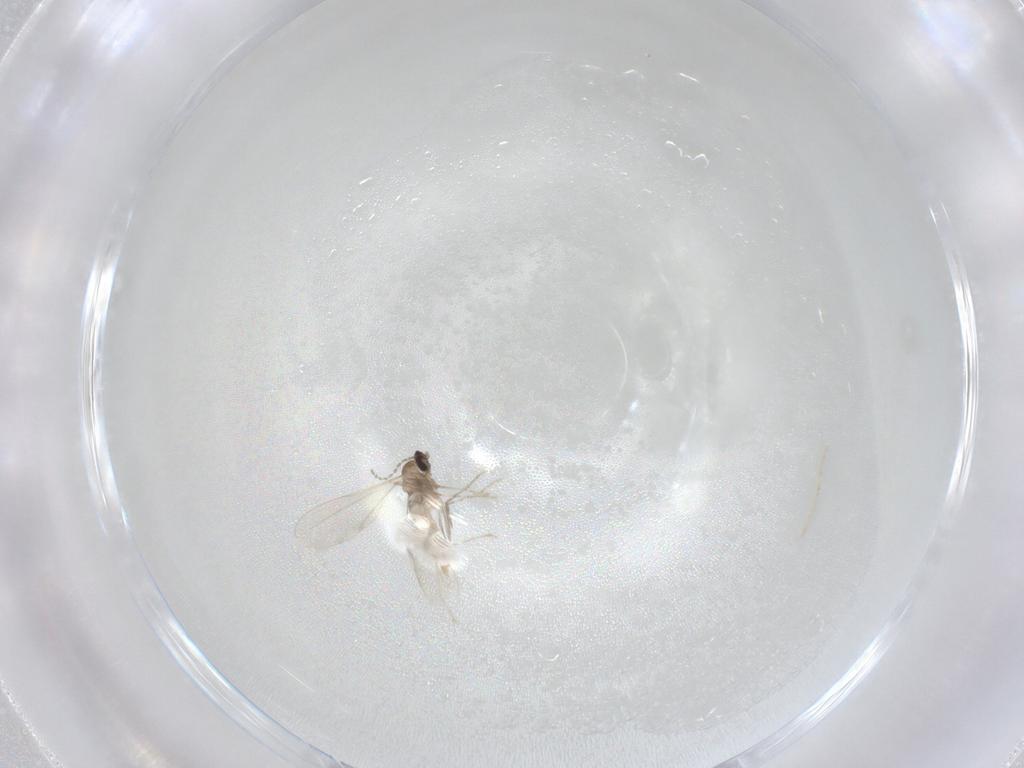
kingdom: Animalia
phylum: Arthropoda
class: Insecta
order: Diptera
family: Cecidomyiidae
